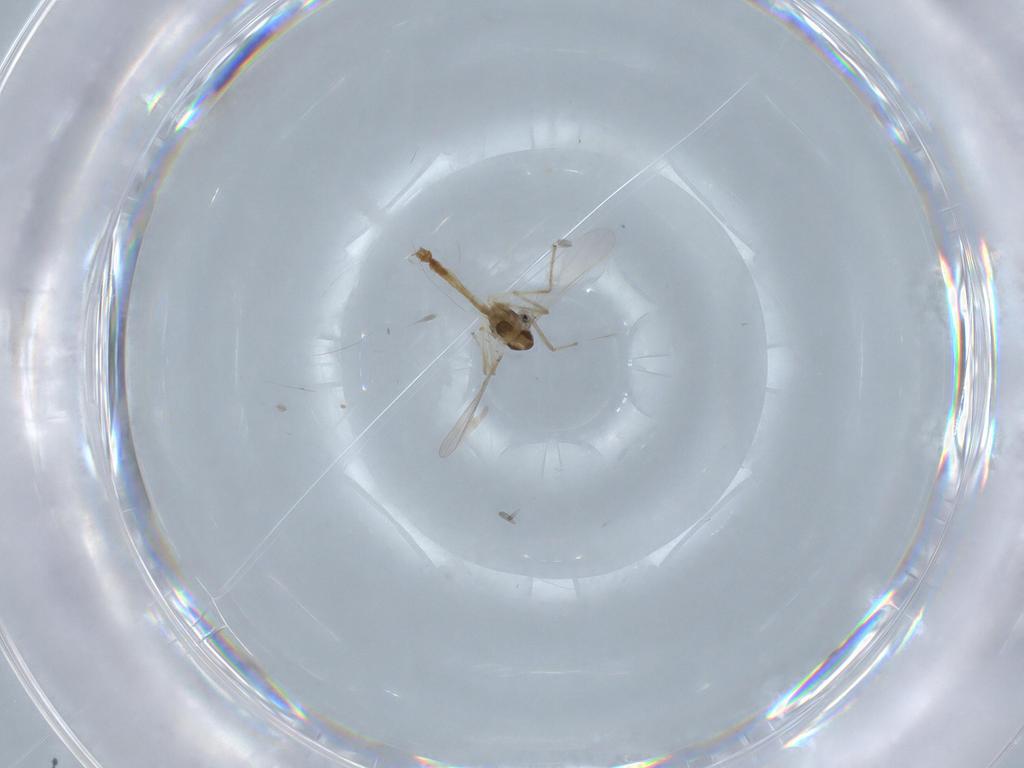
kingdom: Animalia
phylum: Arthropoda
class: Insecta
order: Diptera
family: Chironomidae
